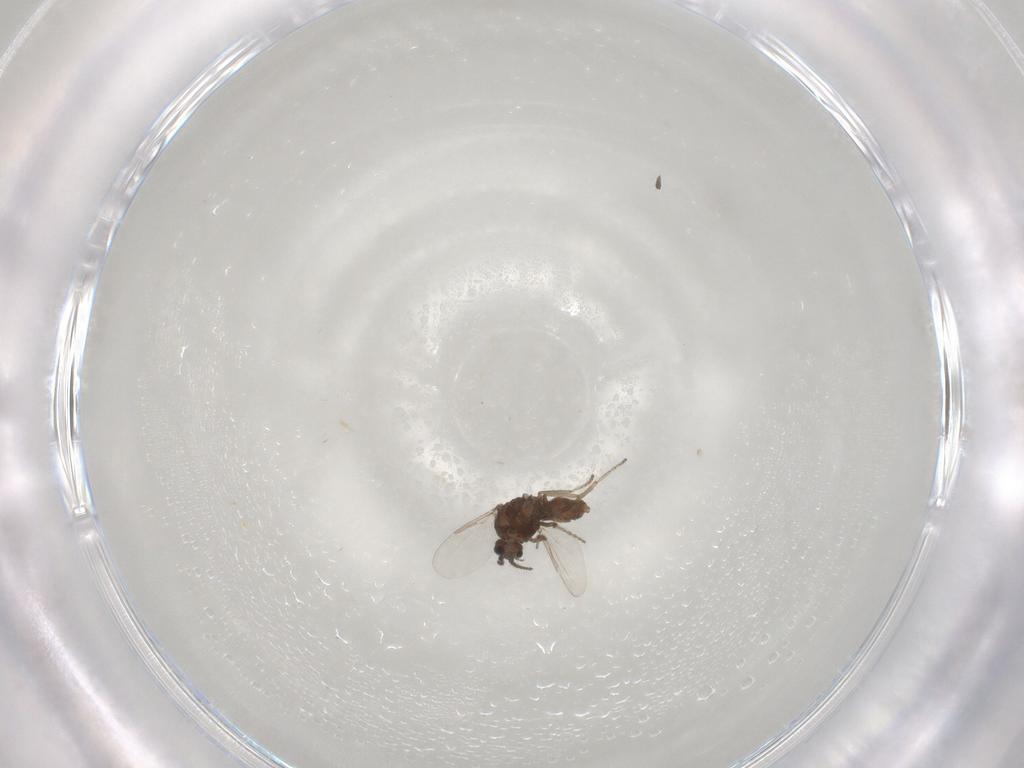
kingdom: Animalia
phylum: Arthropoda
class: Insecta
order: Diptera
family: Ceratopogonidae
